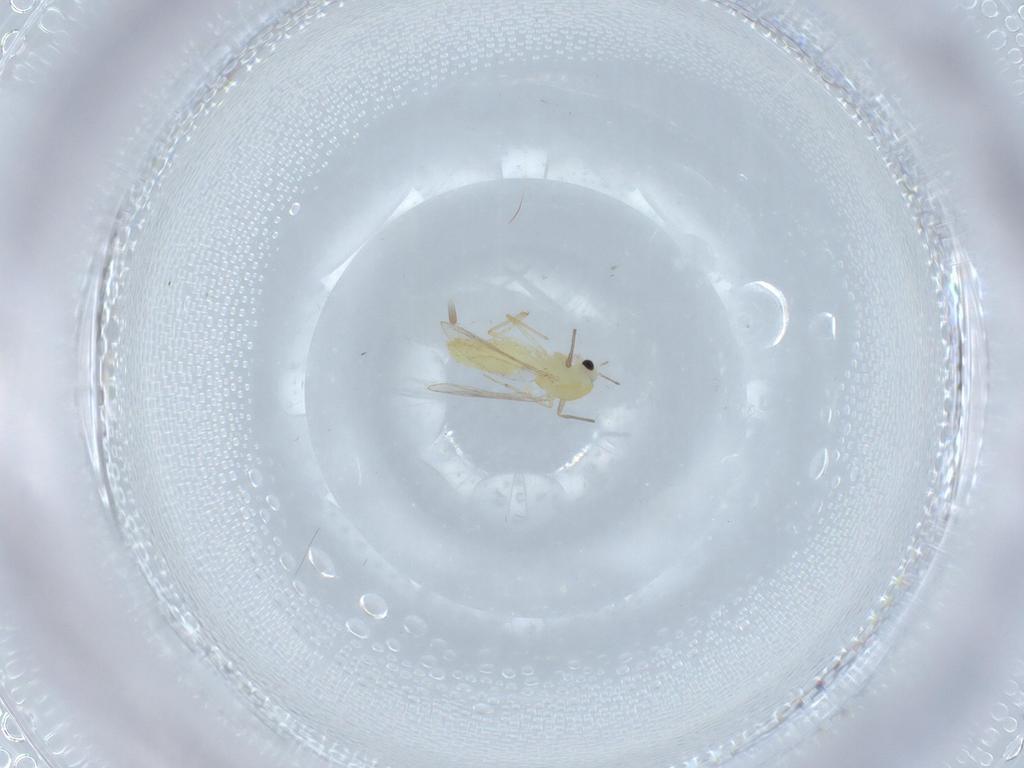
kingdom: Animalia
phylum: Arthropoda
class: Insecta
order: Diptera
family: Chironomidae
